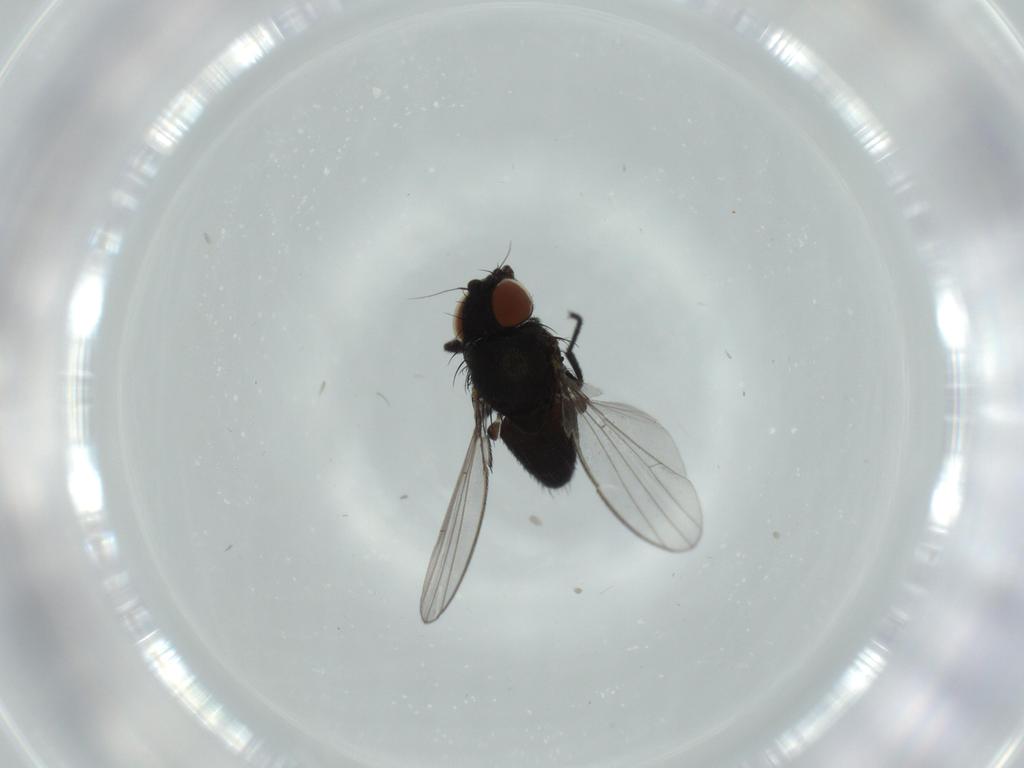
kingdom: Animalia
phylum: Arthropoda
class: Insecta
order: Diptera
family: Milichiidae
